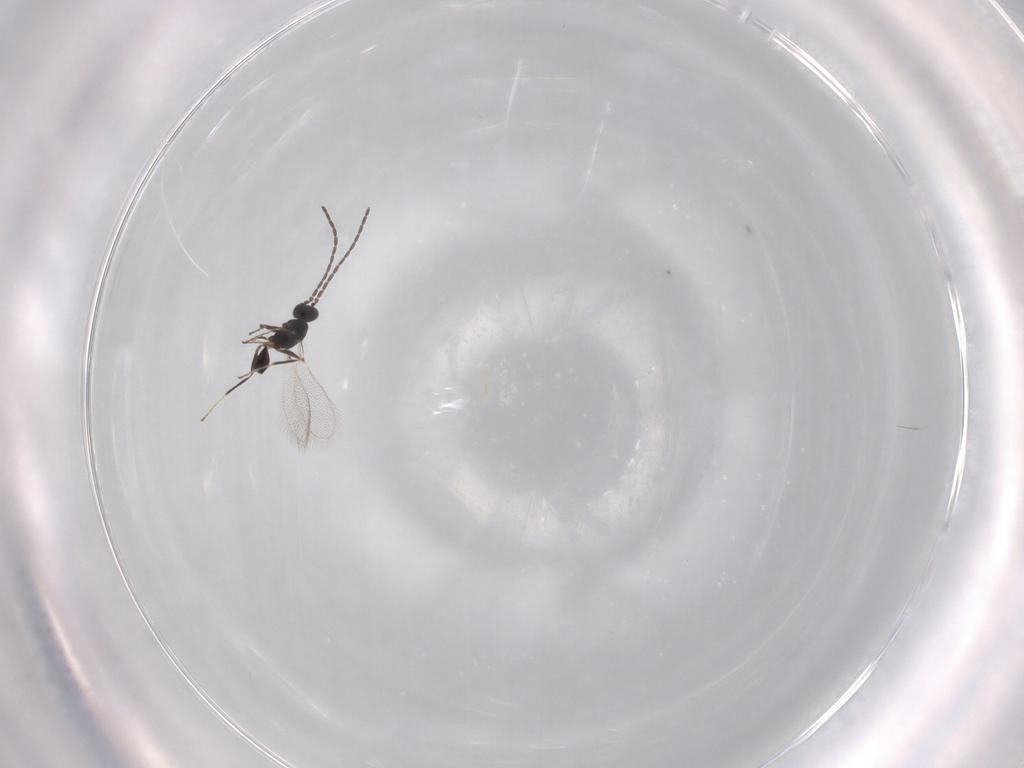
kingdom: Animalia
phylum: Arthropoda
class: Insecta
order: Hymenoptera
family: Mymaridae
